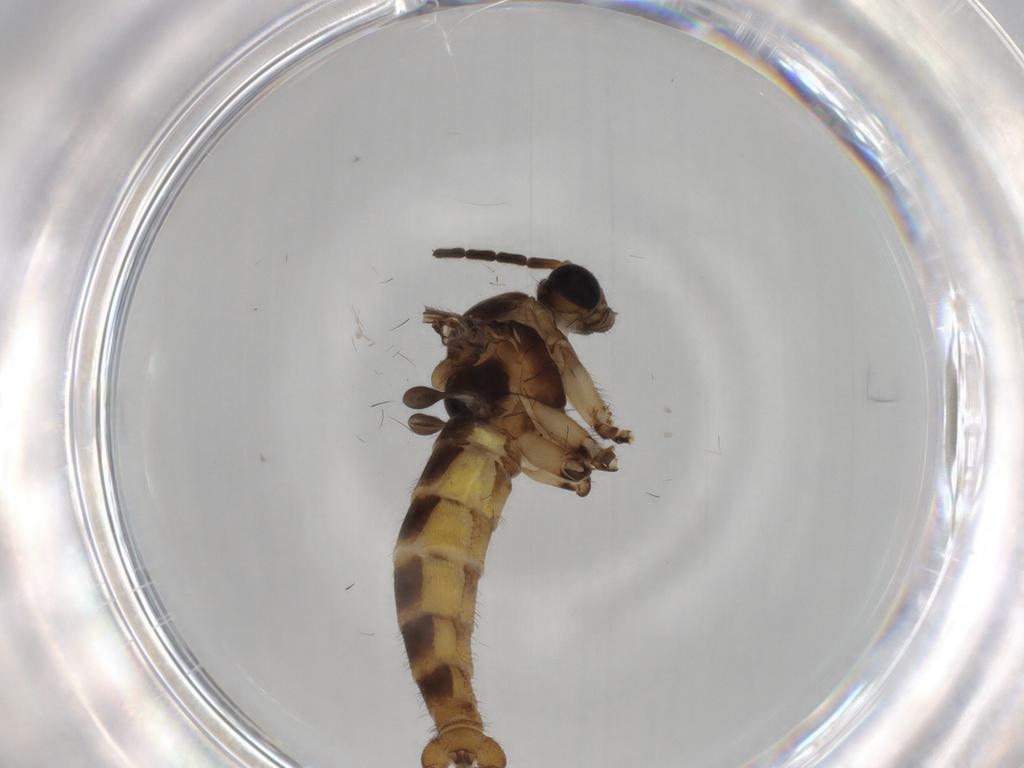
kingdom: Animalia
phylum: Arthropoda
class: Insecta
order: Diptera
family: Sciaridae
